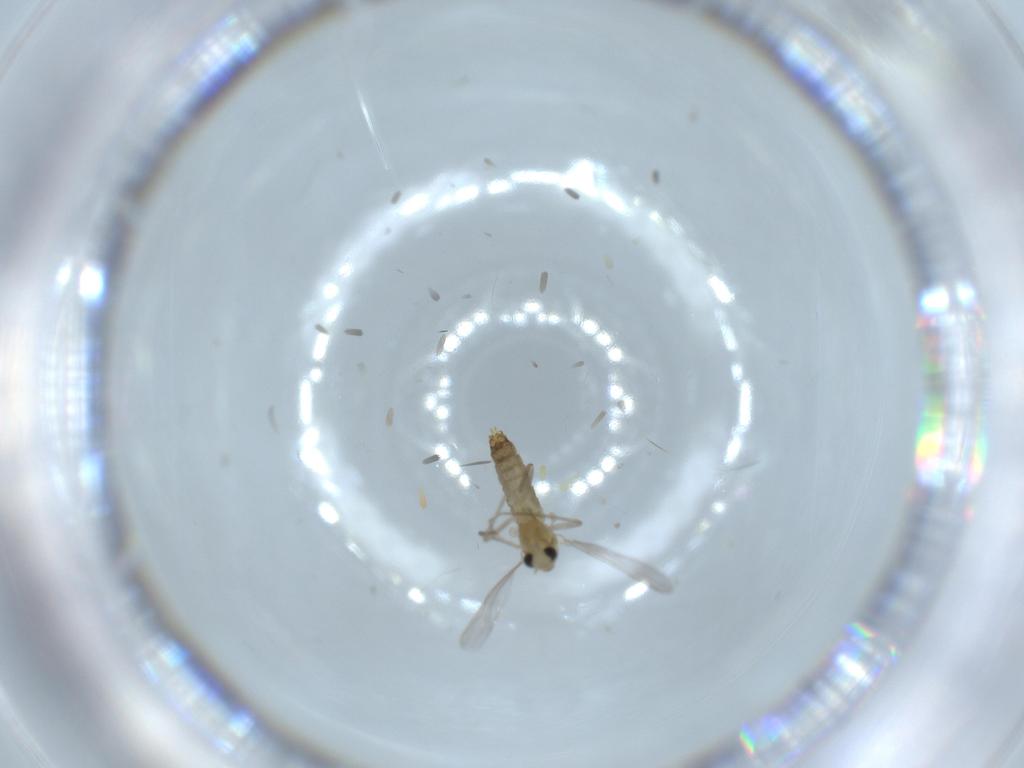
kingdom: Animalia
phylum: Arthropoda
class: Insecta
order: Diptera
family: Chironomidae
